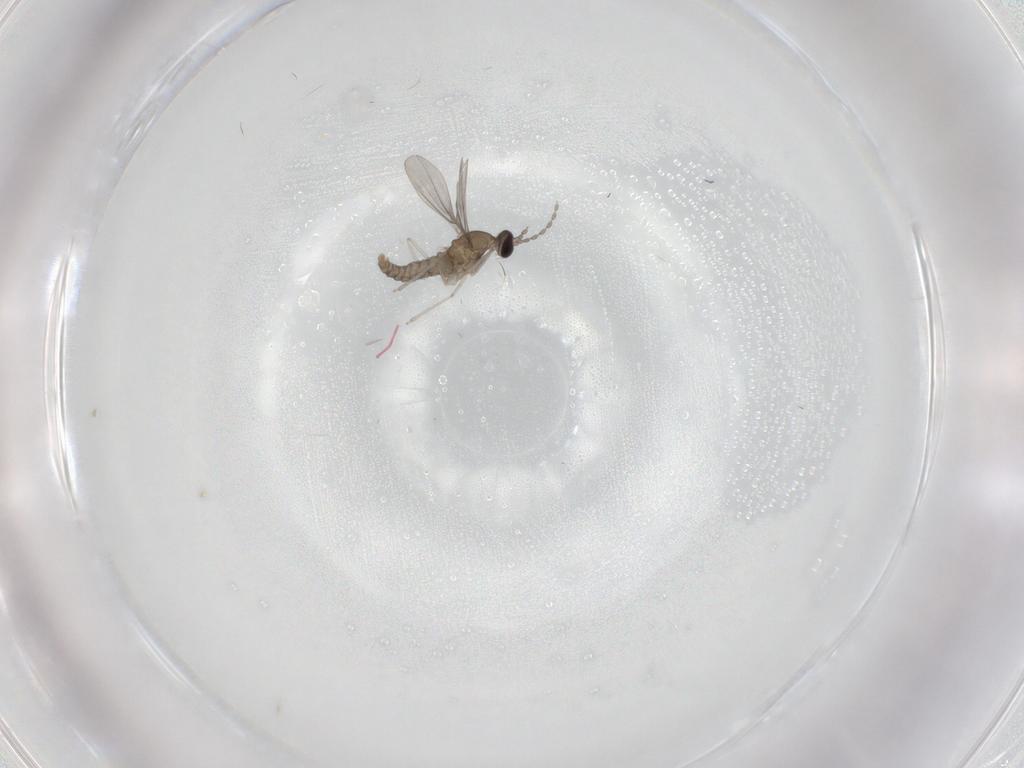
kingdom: Animalia
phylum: Arthropoda
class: Insecta
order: Diptera
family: Cecidomyiidae
